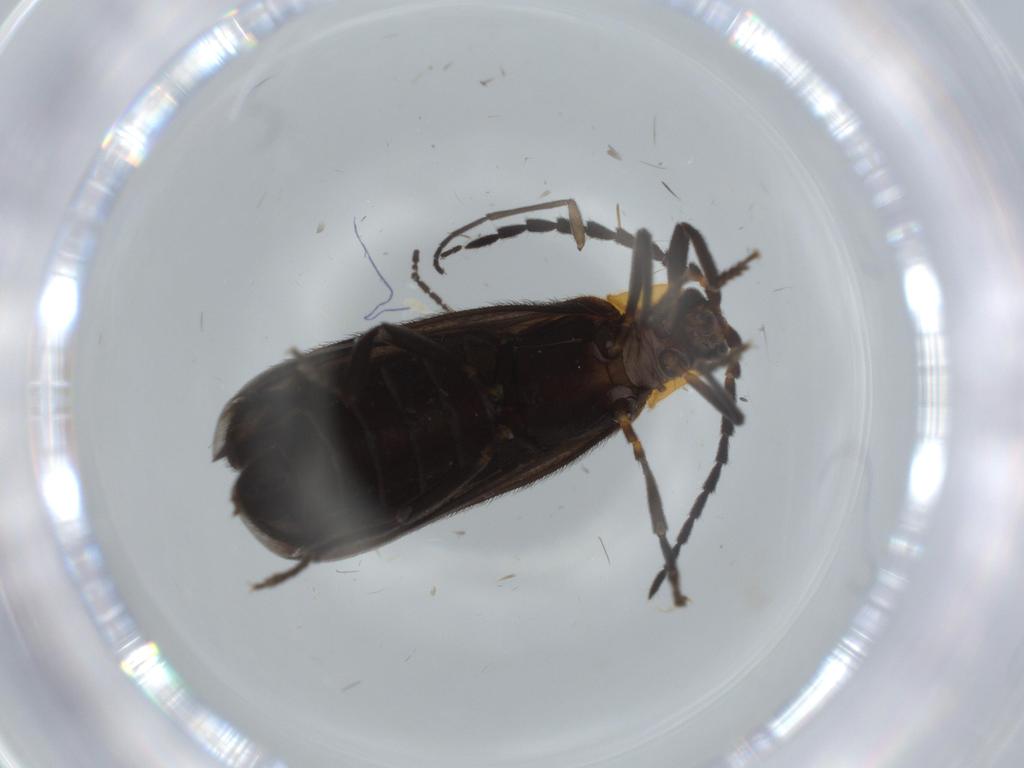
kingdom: Animalia
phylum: Arthropoda
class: Insecta
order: Coleoptera
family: Lycidae
